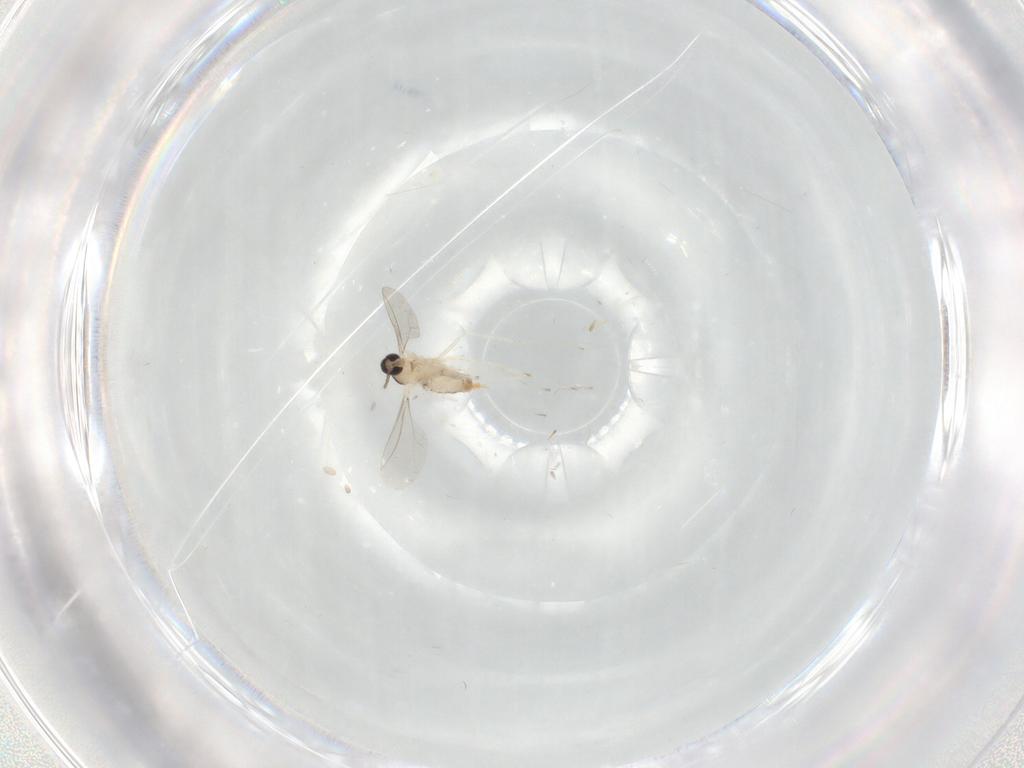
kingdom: Animalia
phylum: Arthropoda
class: Insecta
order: Diptera
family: Cecidomyiidae
